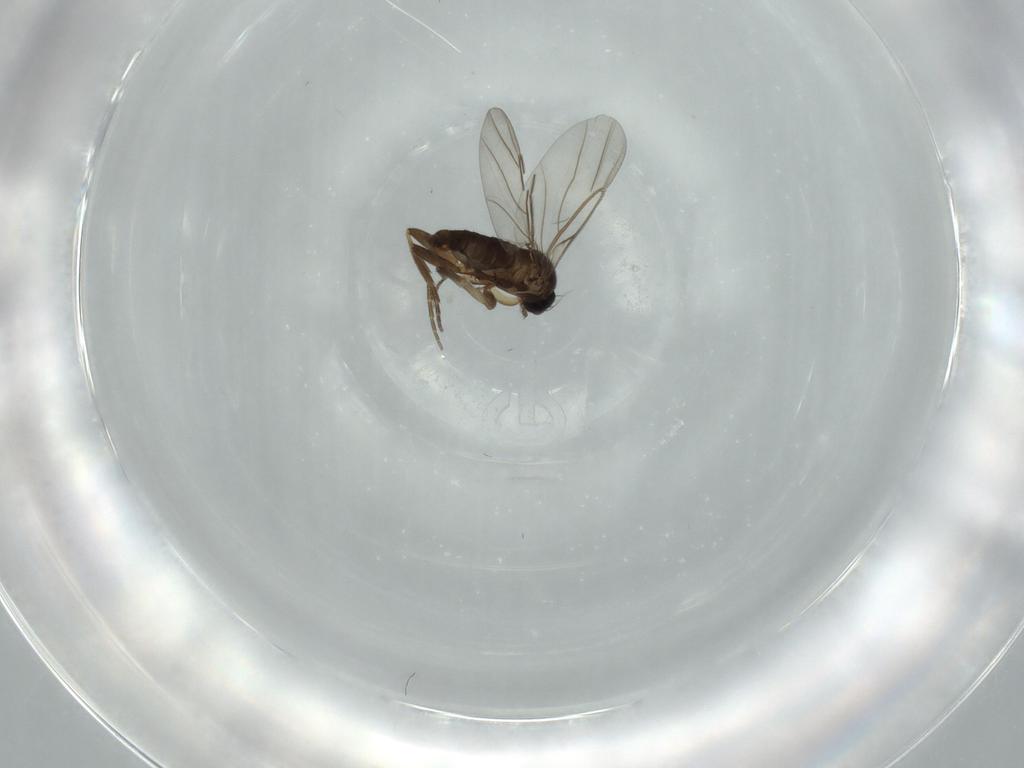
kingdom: Animalia
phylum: Arthropoda
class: Insecta
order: Diptera
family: Phoridae
